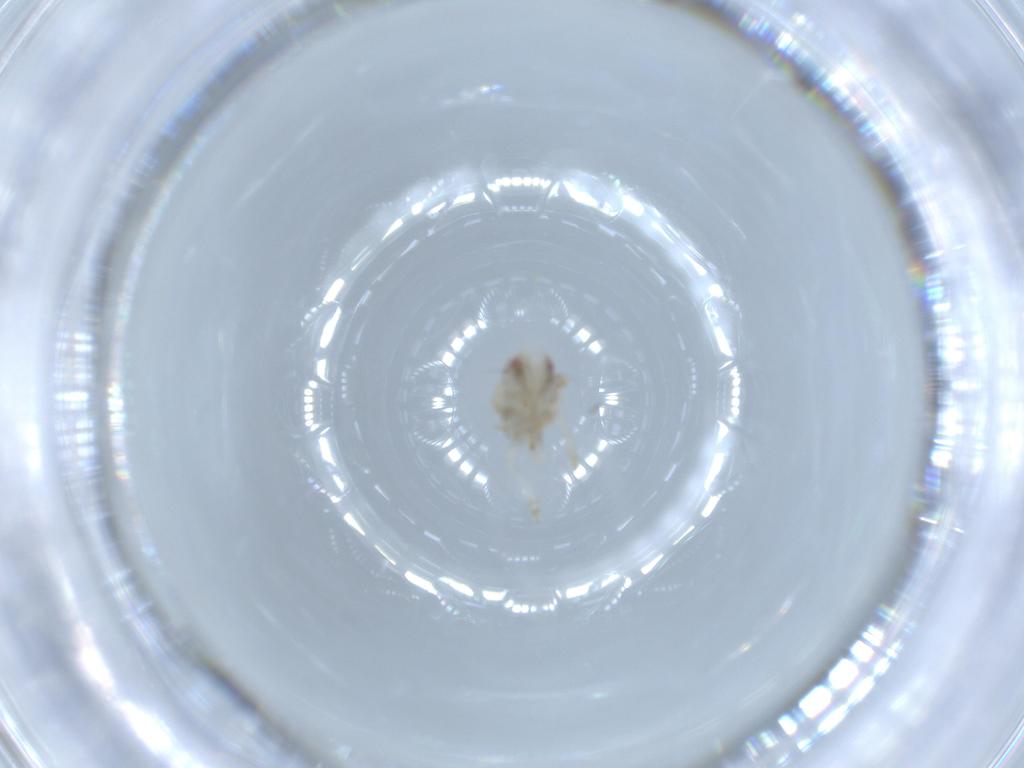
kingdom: Animalia
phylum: Arthropoda
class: Insecta
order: Hemiptera
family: Acanaloniidae
